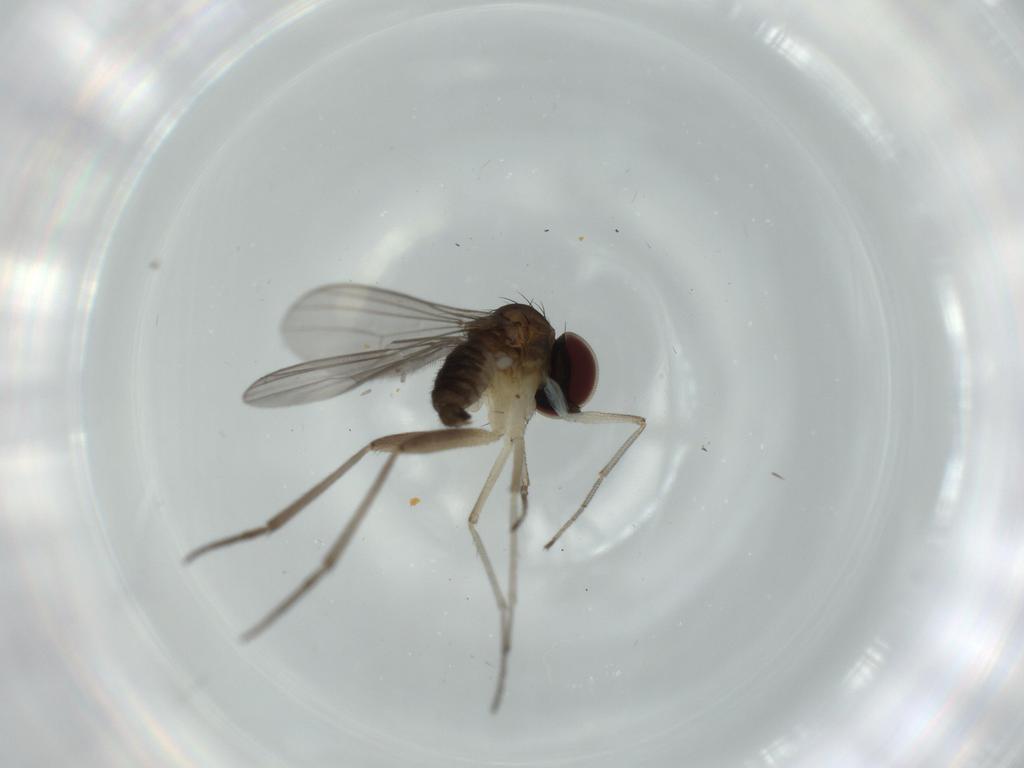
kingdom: Animalia
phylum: Arthropoda
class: Insecta
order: Diptera
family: Dolichopodidae
